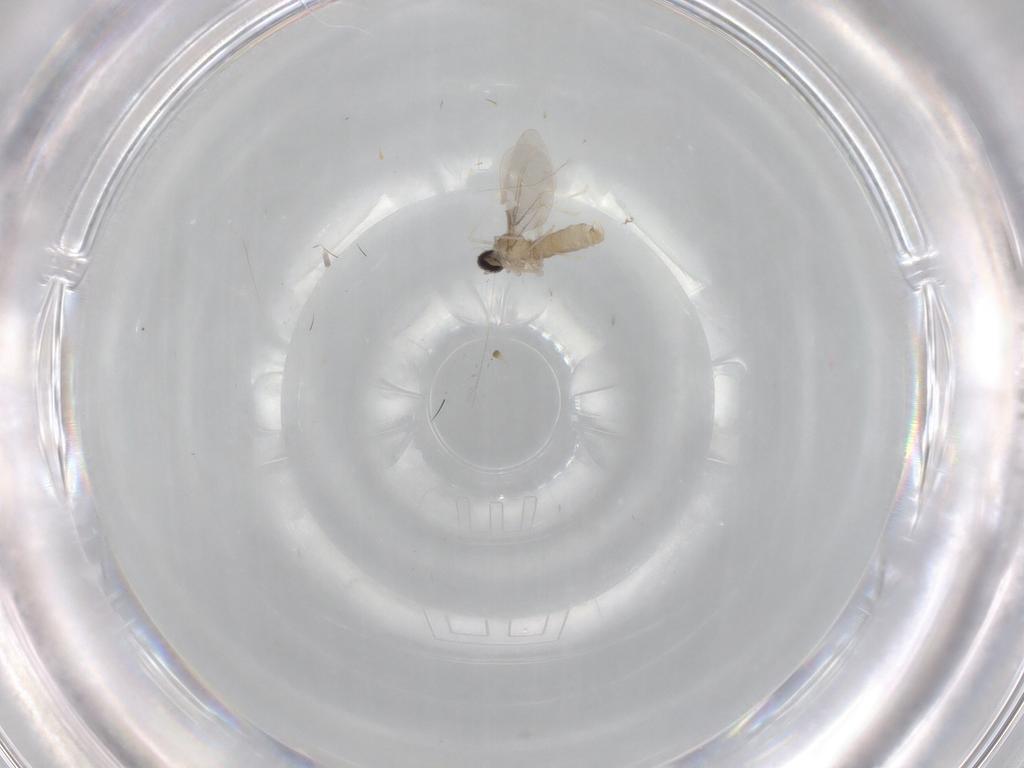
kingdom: Animalia
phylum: Arthropoda
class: Insecta
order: Diptera
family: Cecidomyiidae
